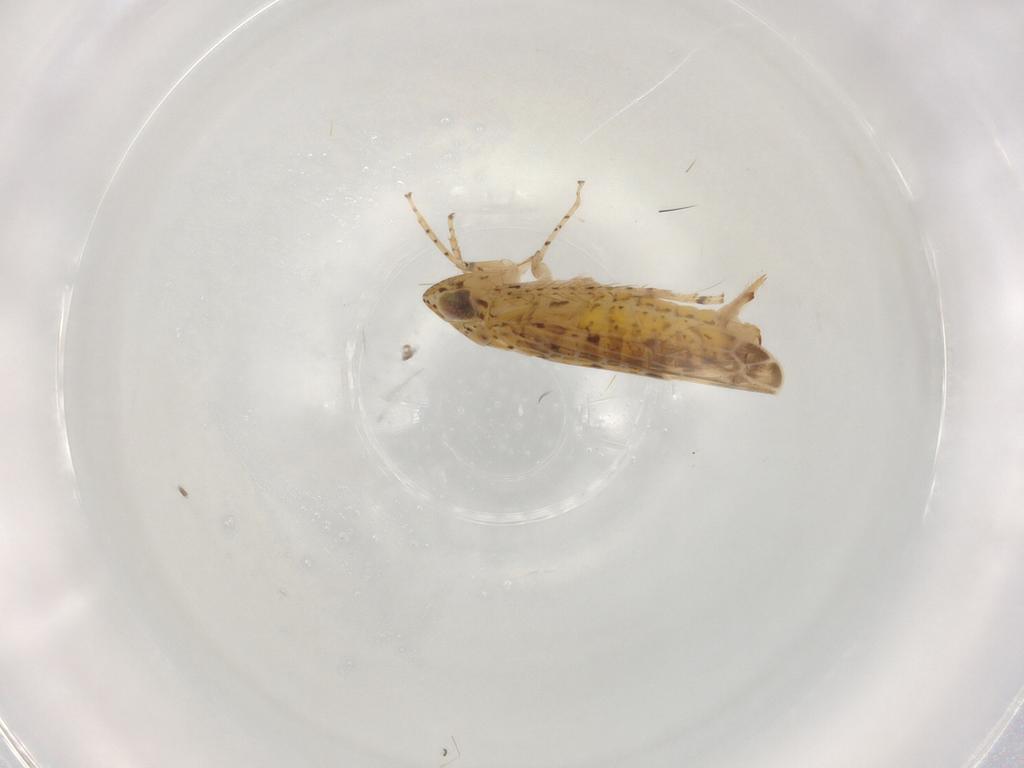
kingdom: Animalia
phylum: Arthropoda
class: Insecta
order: Hemiptera
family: Cicadellidae
